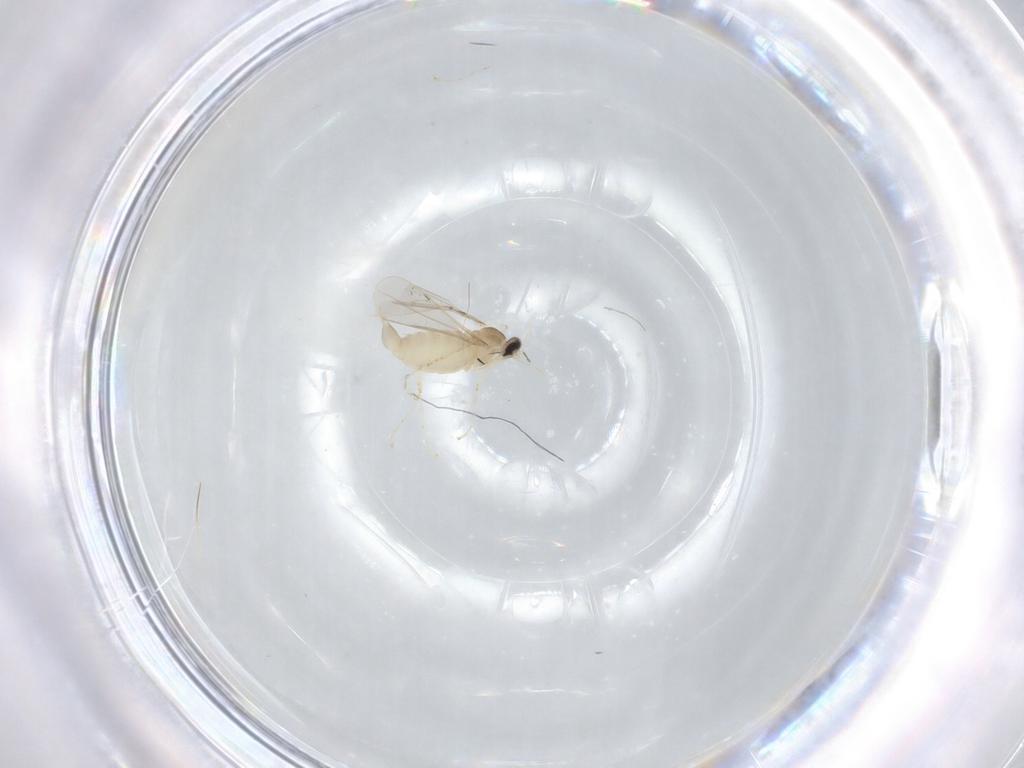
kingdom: Animalia
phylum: Arthropoda
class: Insecta
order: Diptera
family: Cecidomyiidae
